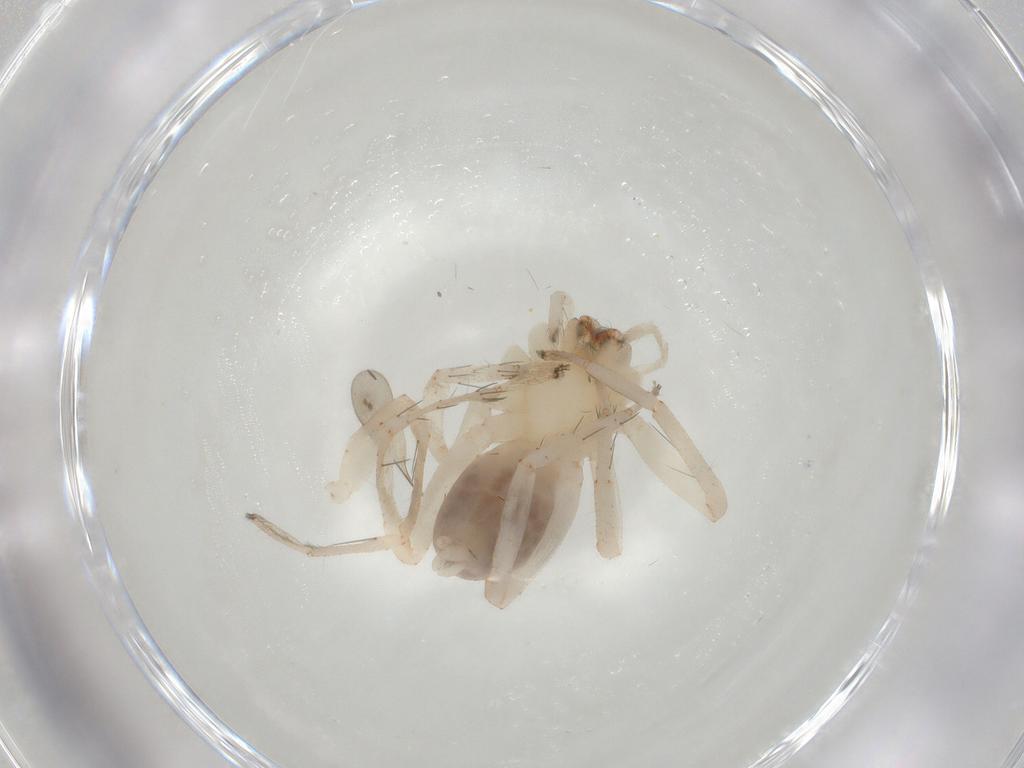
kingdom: Animalia
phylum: Arthropoda
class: Arachnida
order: Araneae
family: Anyphaenidae
